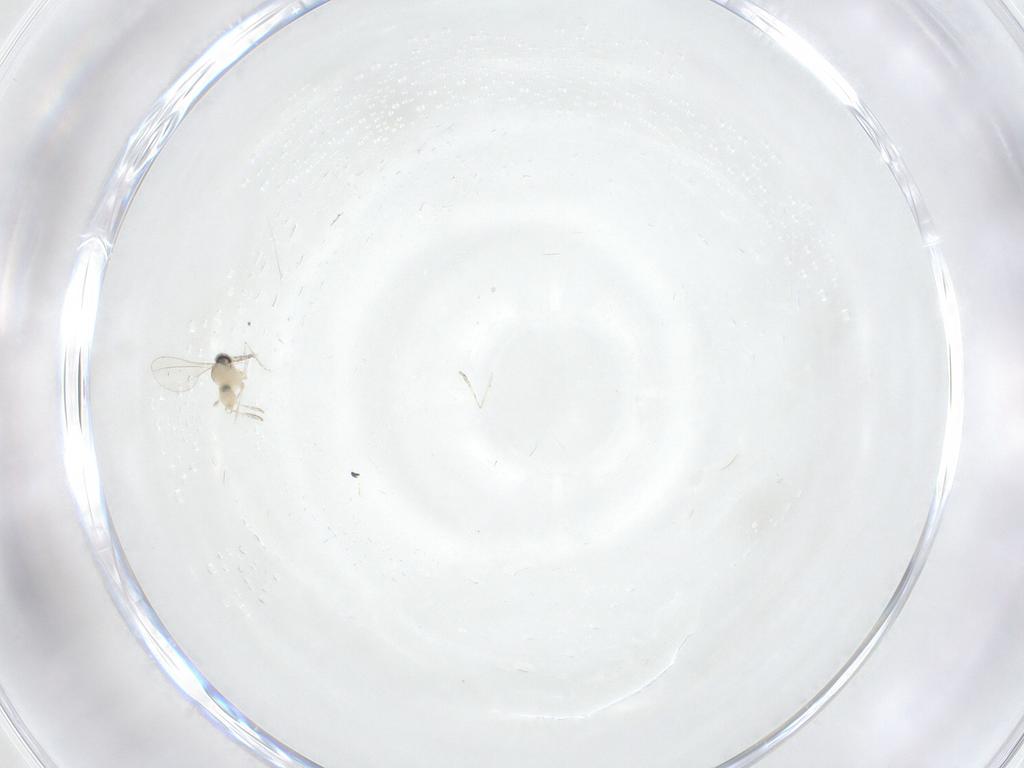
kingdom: Animalia
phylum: Arthropoda
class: Insecta
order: Diptera
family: Cecidomyiidae
